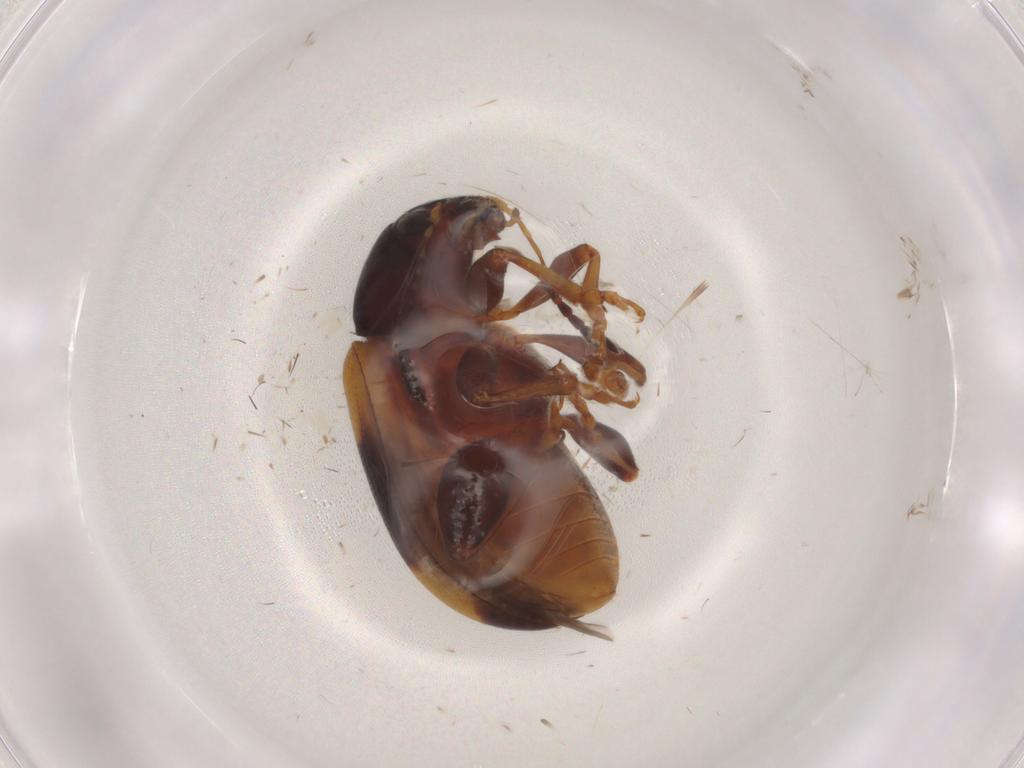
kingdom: Animalia
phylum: Arthropoda
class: Insecta
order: Coleoptera
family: Chrysomelidae
